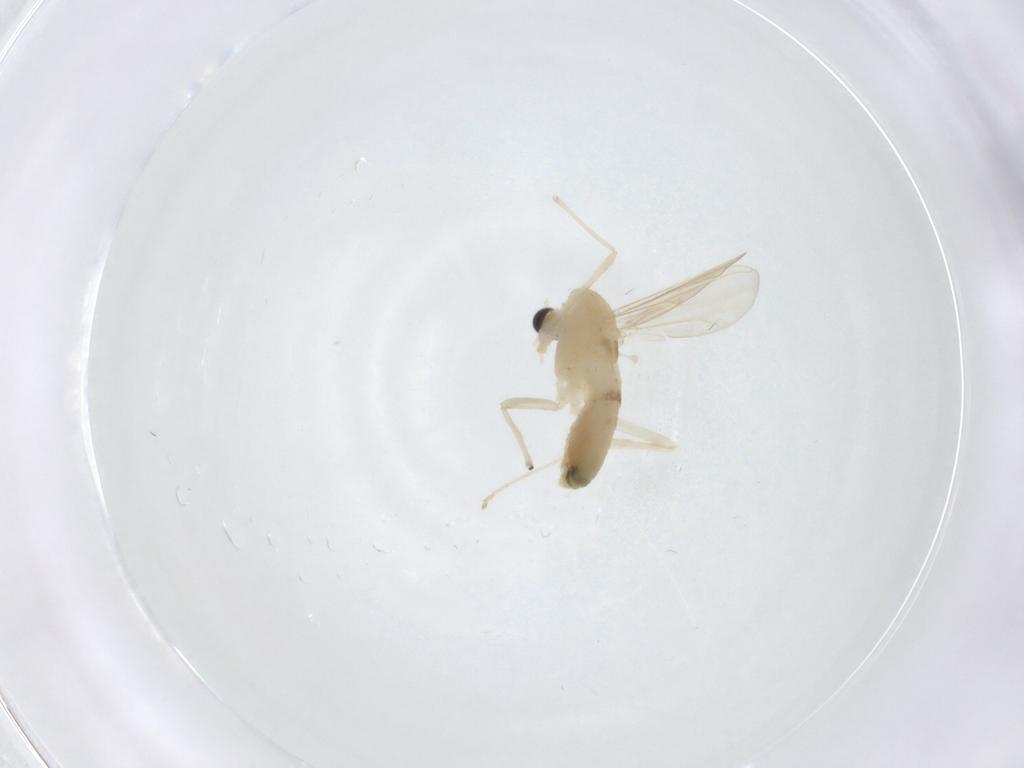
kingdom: Animalia
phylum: Arthropoda
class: Insecta
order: Diptera
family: Chironomidae
